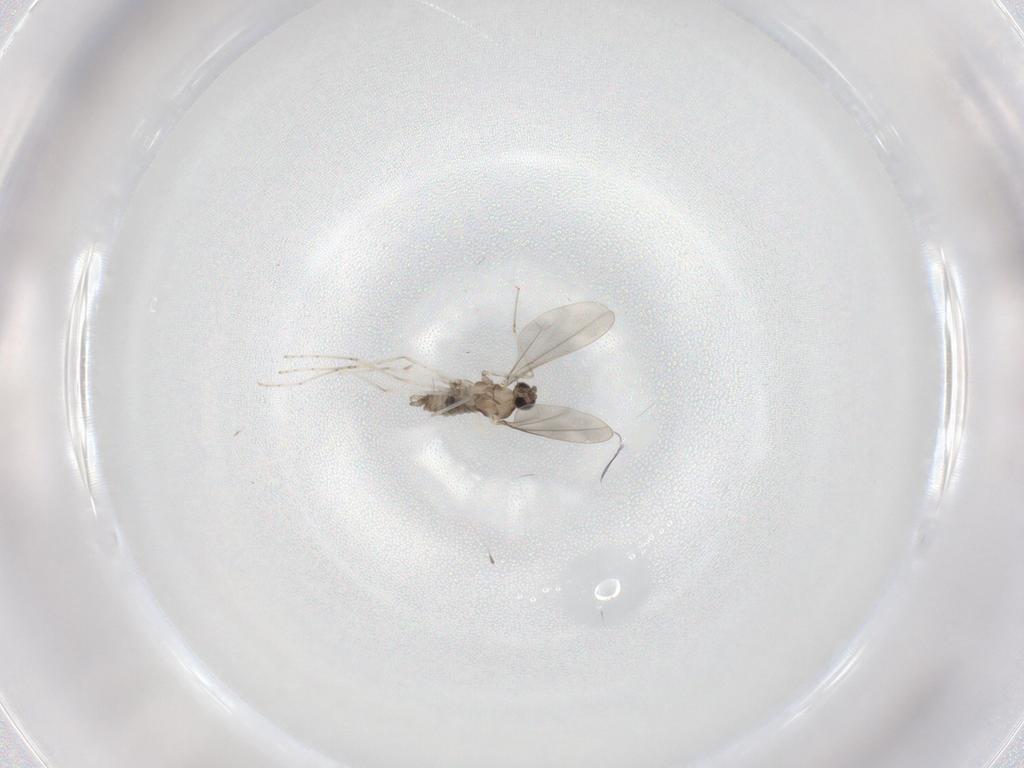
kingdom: Animalia
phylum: Arthropoda
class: Insecta
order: Diptera
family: Cecidomyiidae
